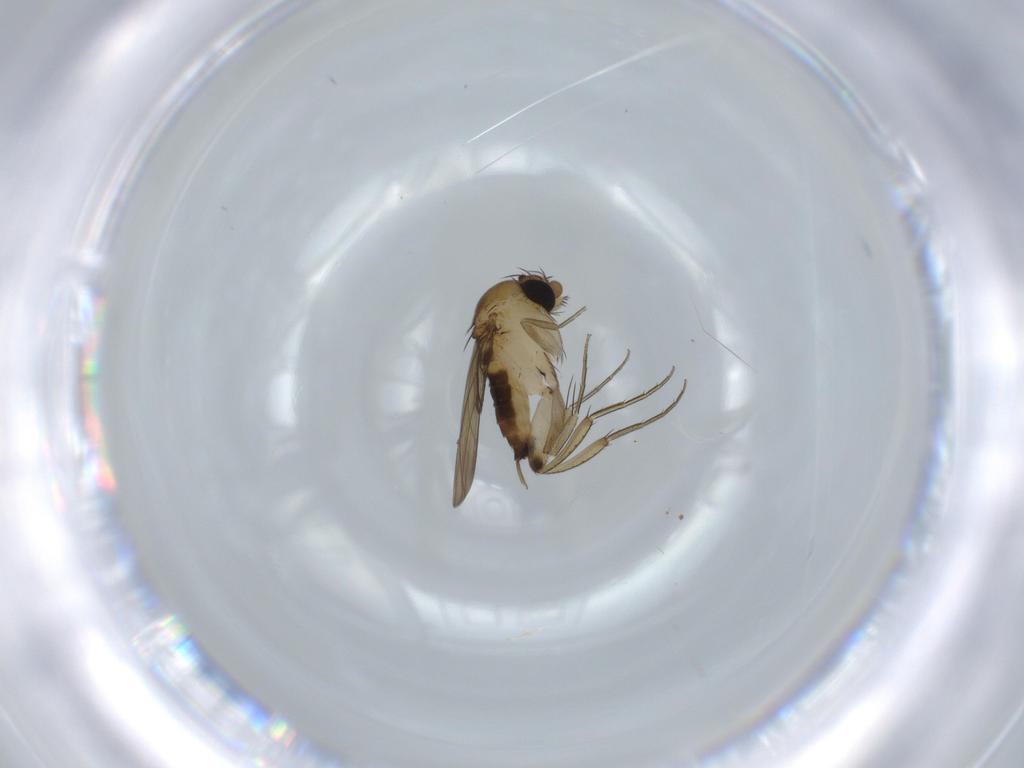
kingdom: Animalia
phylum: Arthropoda
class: Insecta
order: Diptera
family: Phoridae
